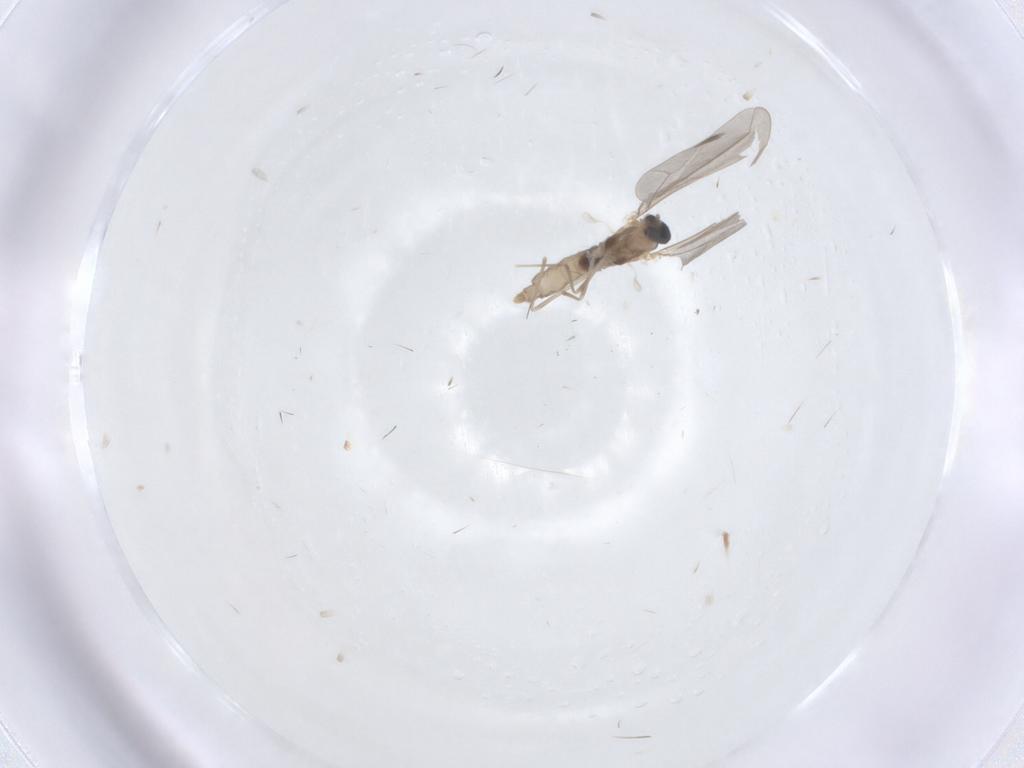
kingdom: Animalia
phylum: Arthropoda
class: Insecta
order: Diptera
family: Cecidomyiidae
